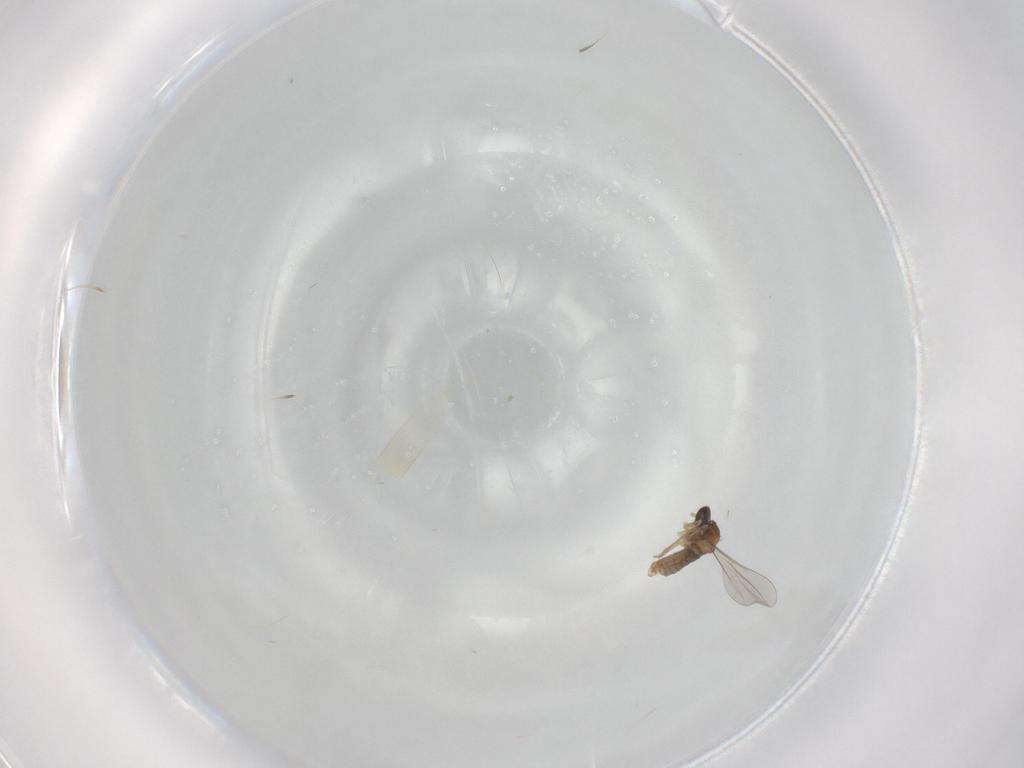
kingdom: Animalia
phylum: Arthropoda
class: Insecta
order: Diptera
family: Cecidomyiidae
